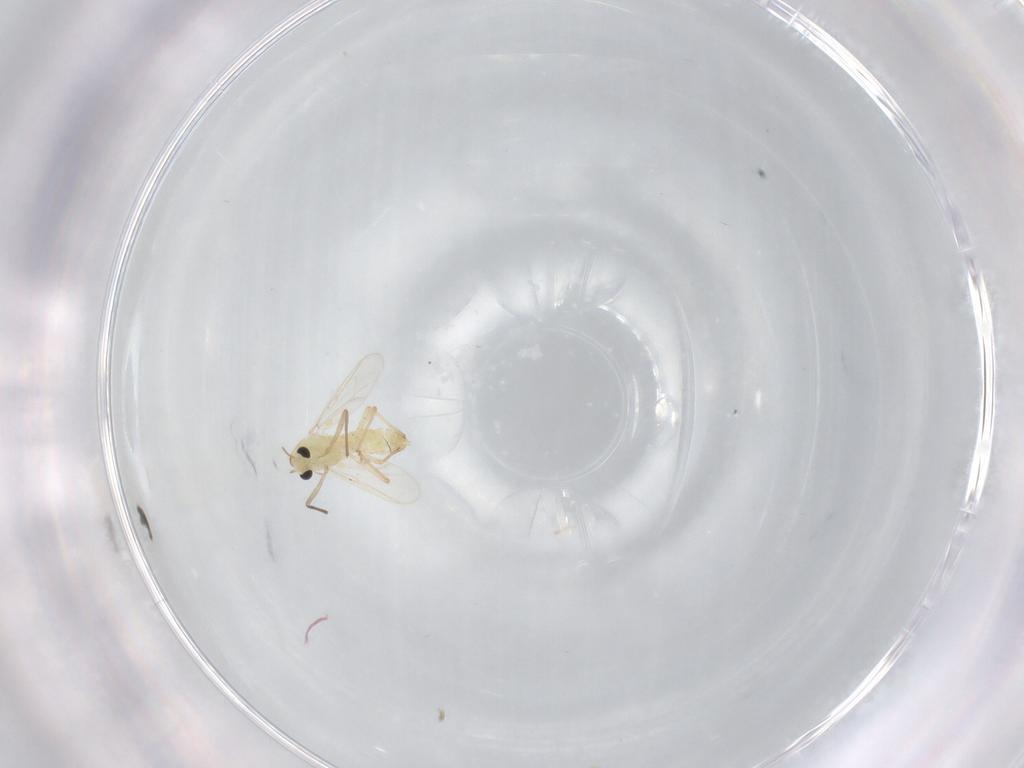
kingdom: Animalia
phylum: Arthropoda
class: Insecta
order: Diptera
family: Chironomidae
